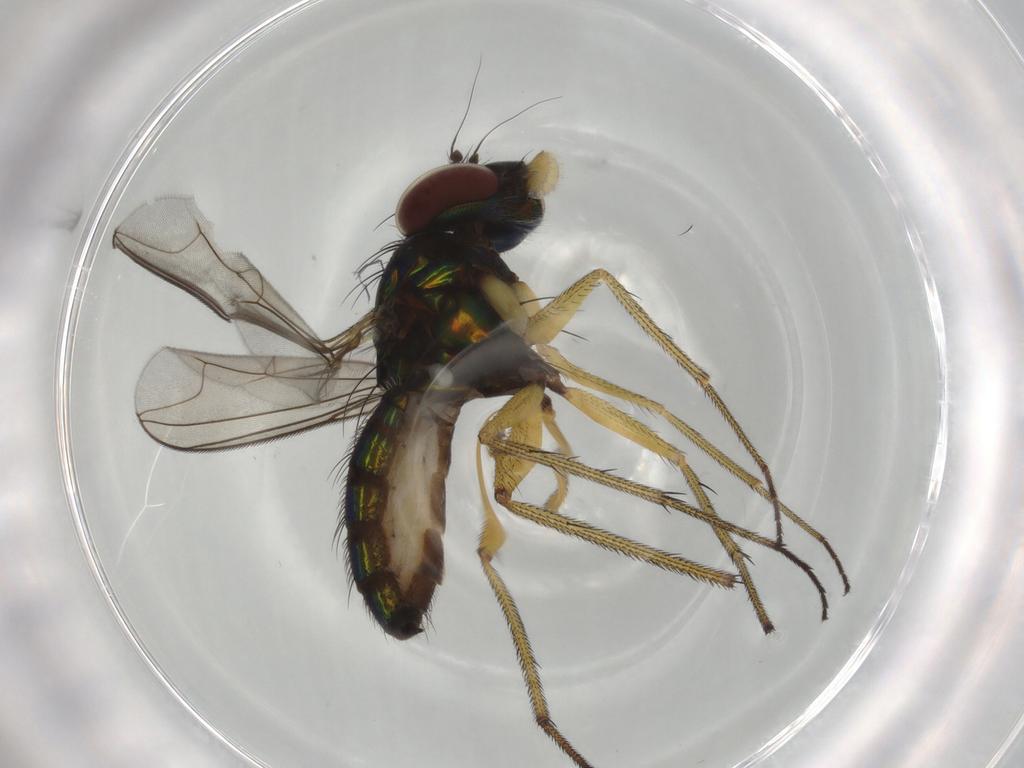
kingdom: Animalia
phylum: Arthropoda
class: Insecta
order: Diptera
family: Dolichopodidae
